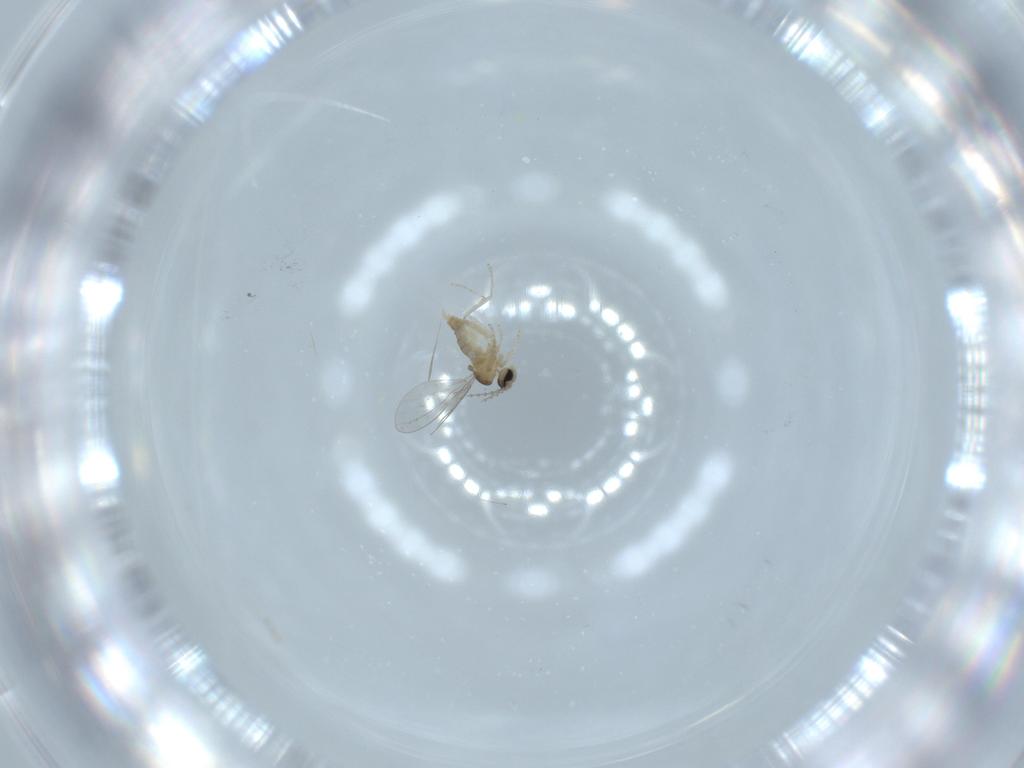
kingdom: Animalia
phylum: Arthropoda
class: Insecta
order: Diptera
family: Cecidomyiidae
